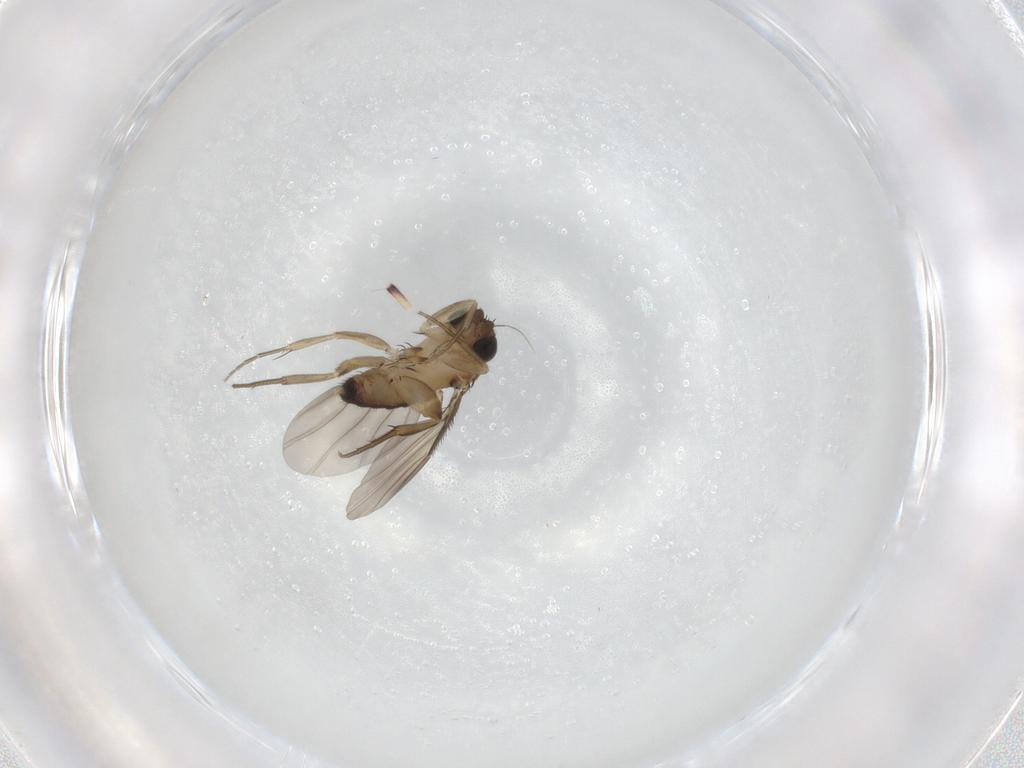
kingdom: Animalia
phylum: Arthropoda
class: Insecta
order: Diptera
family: Phoridae
